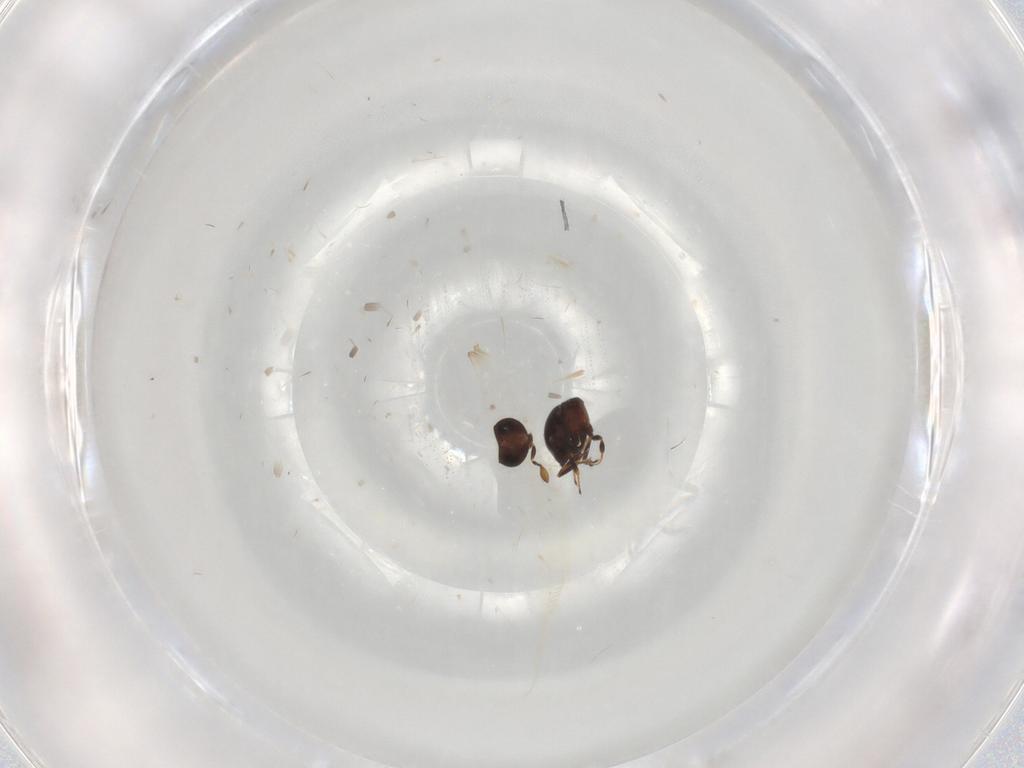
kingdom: Animalia
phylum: Arthropoda
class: Insecta
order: Hymenoptera
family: Scelionidae
